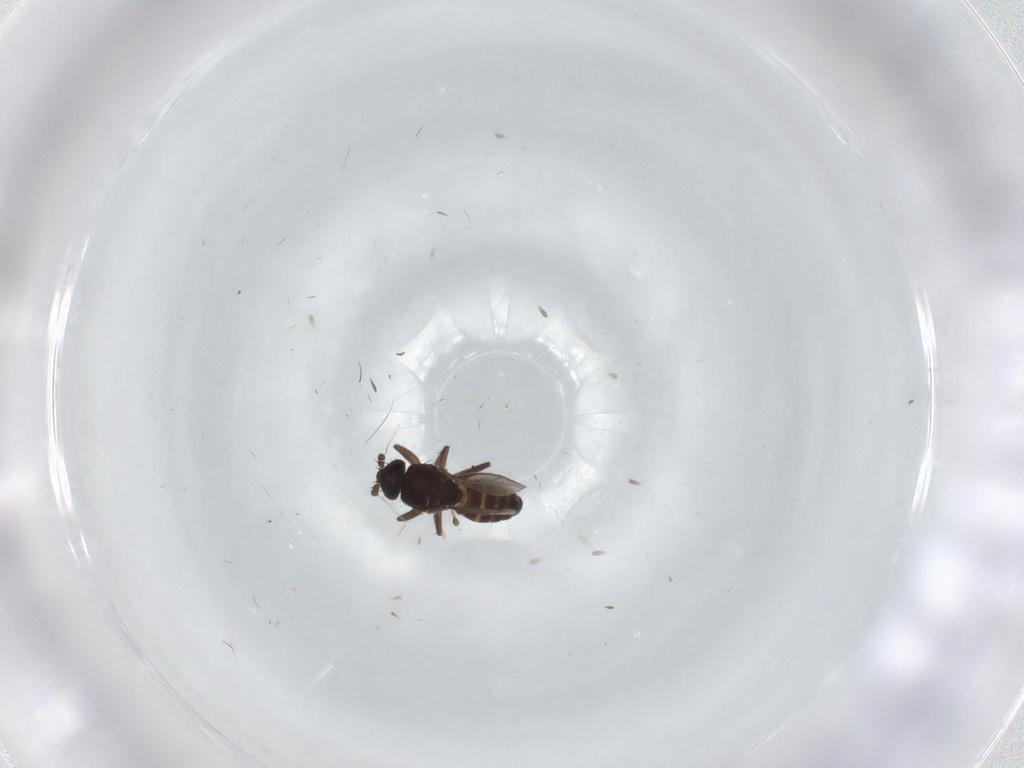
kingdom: Animalia
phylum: Arthropoda
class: Insecta
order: Diptera
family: Sphaeroceridae
